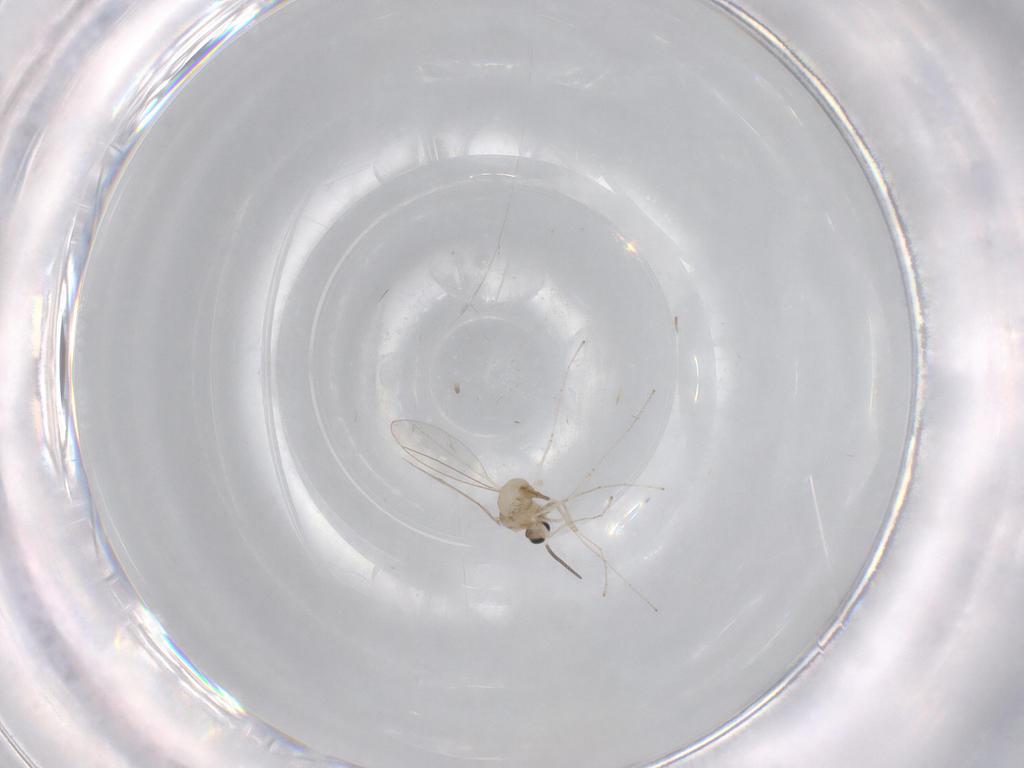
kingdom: Animalia
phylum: Arthropoda
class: Insecta
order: Diptera
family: Cecidomyiidae
